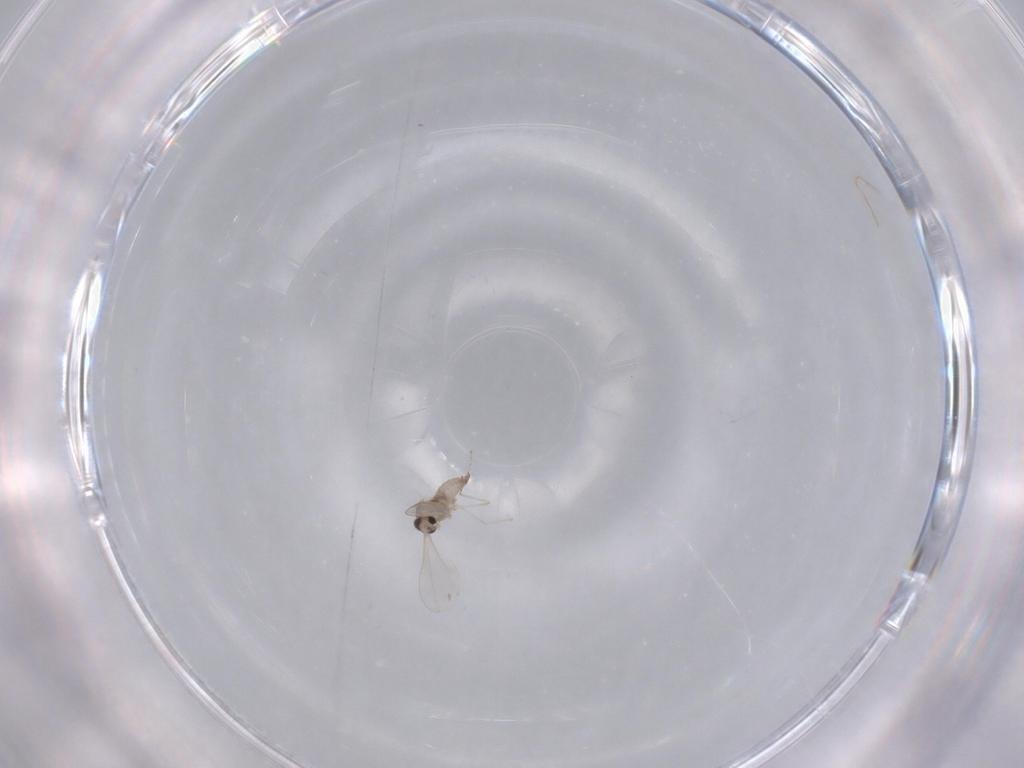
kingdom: Animalia
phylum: Arthropoda
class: Insecta
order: Diptera
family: Cecidomyiidae
